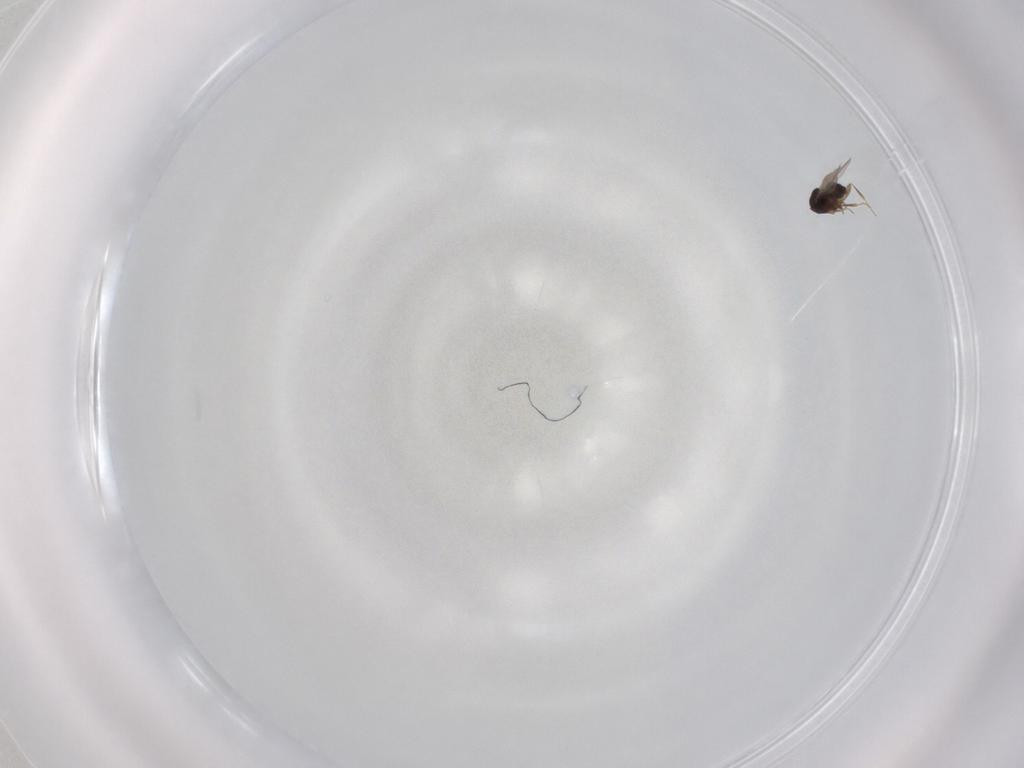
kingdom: Animalia
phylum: Arthropoda
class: Insecta
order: Hymenoptera
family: Ceraphronidae
